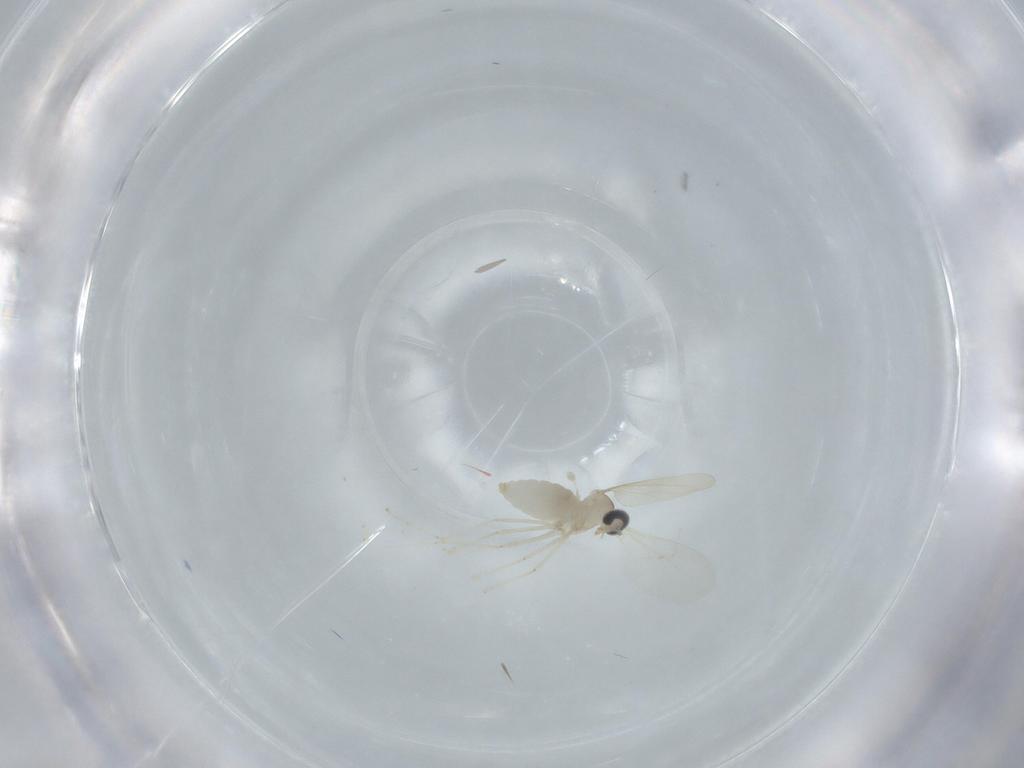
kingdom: Animalia
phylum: Arthropoda
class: Insecta
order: Diptera
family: Cecidomyiidae
